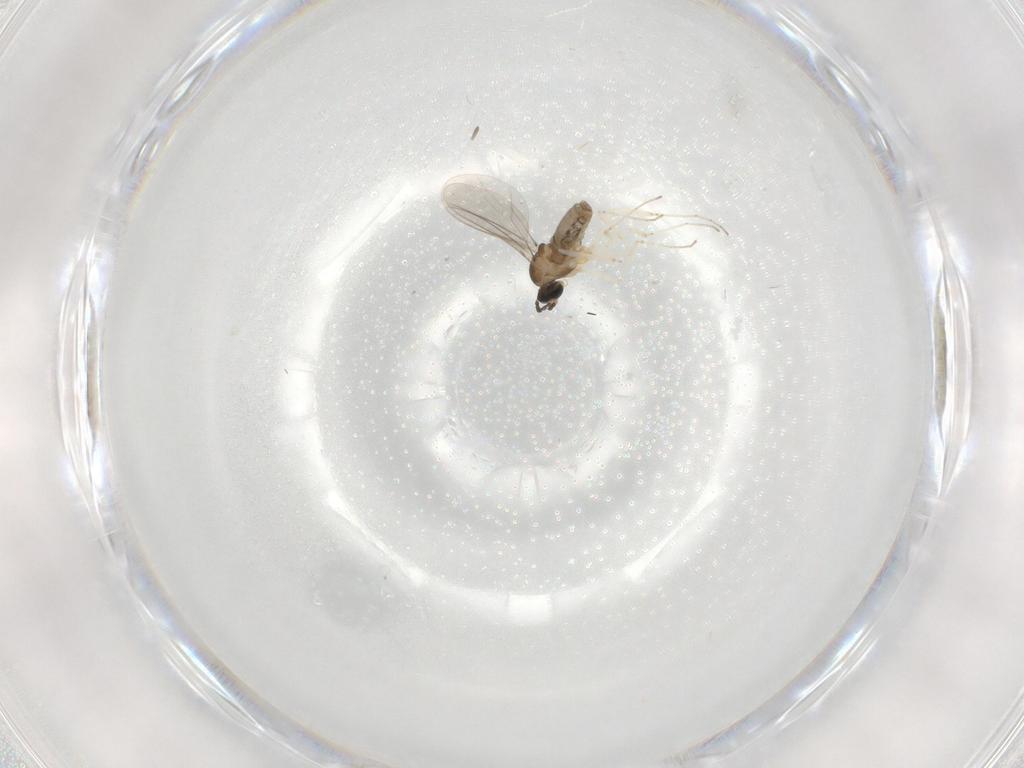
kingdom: Animalia
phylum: Arthropoda
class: Insecta
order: Diptera
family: Cecidomyiidae
